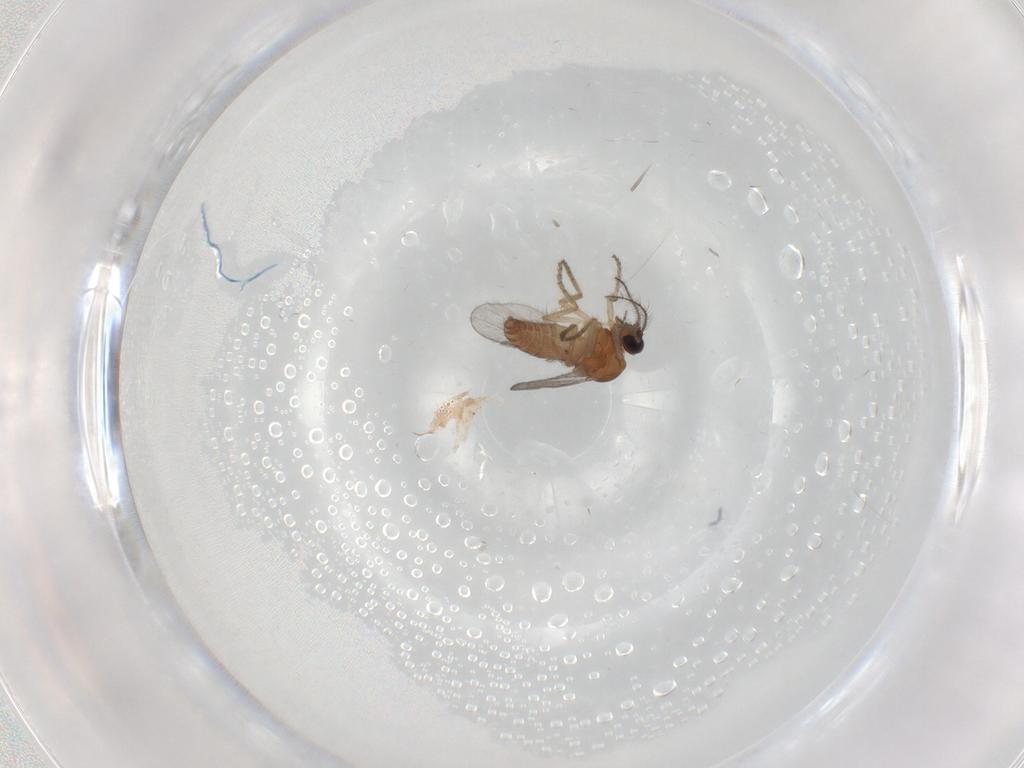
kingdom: Animalia
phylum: Arthropoda
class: Insecta
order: Diptera
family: Ceratopogonidae
